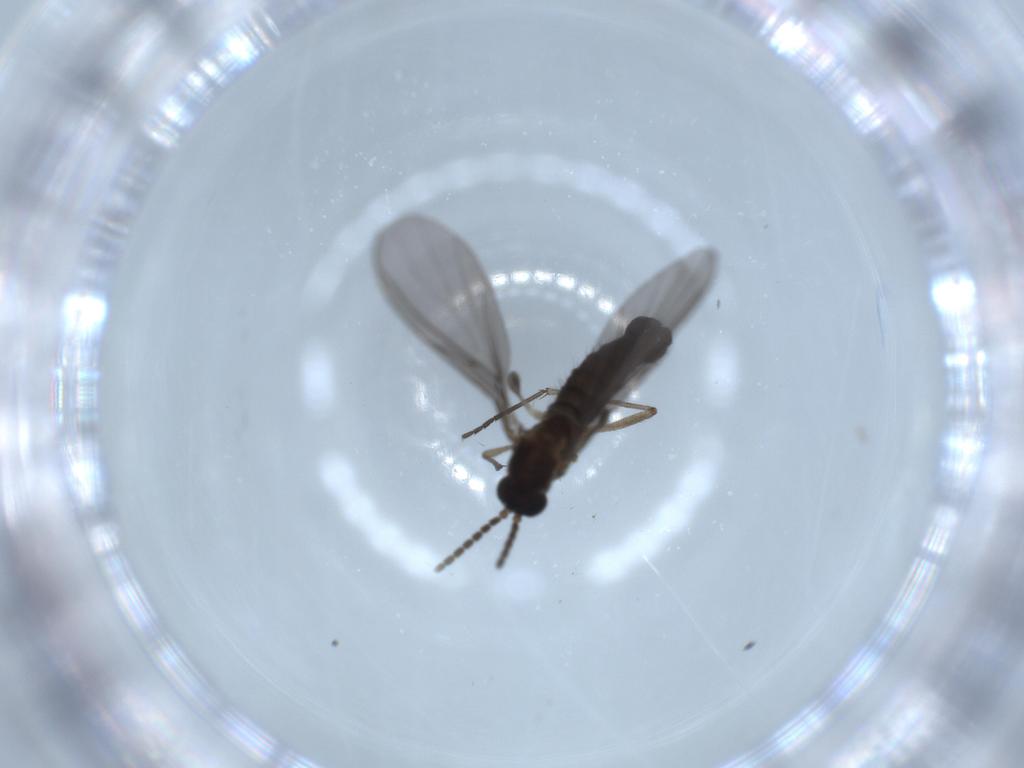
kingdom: Animalia
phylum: Arthropoda
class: Insecta
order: Diptera
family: Sciaridae
